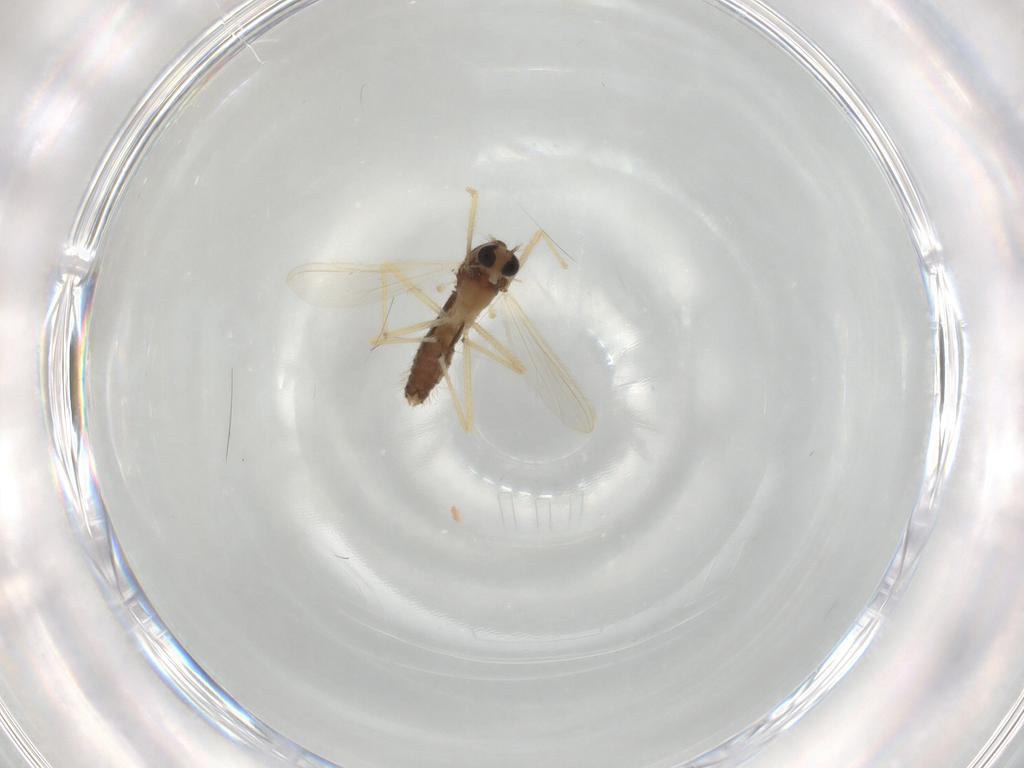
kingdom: Animalia
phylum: Arthropoda
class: Insecta
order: Diptera
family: Chironomidae
